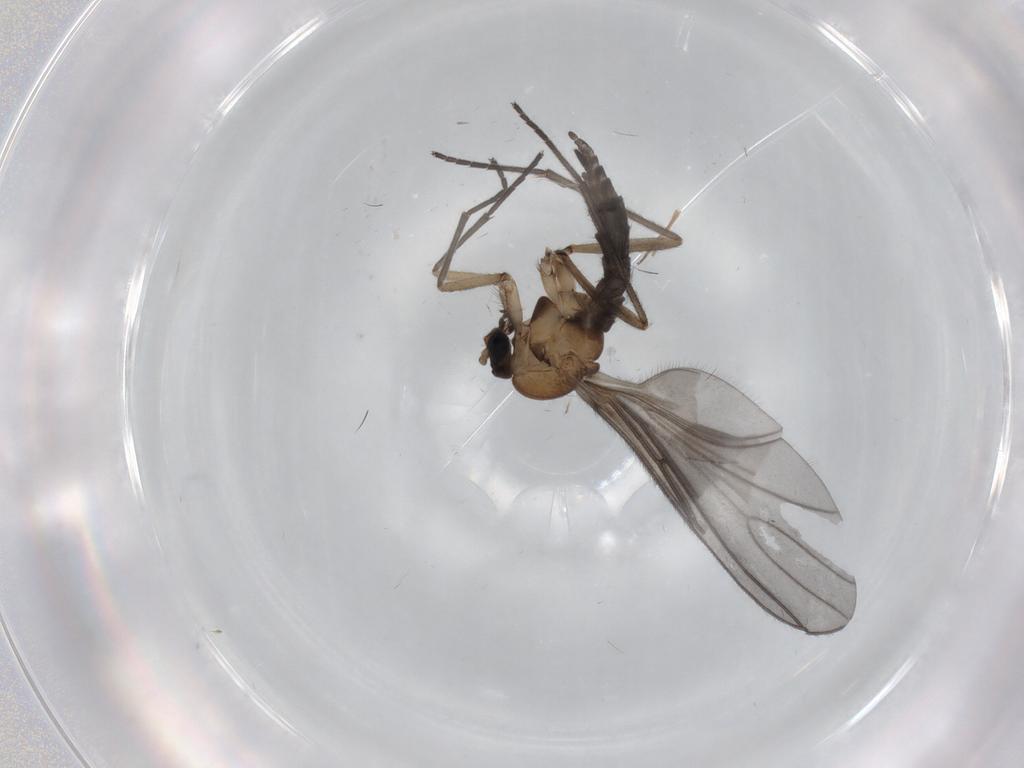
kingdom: Animalia
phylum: Arthropoda
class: Insecta
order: Diptera
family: Sciaridae
